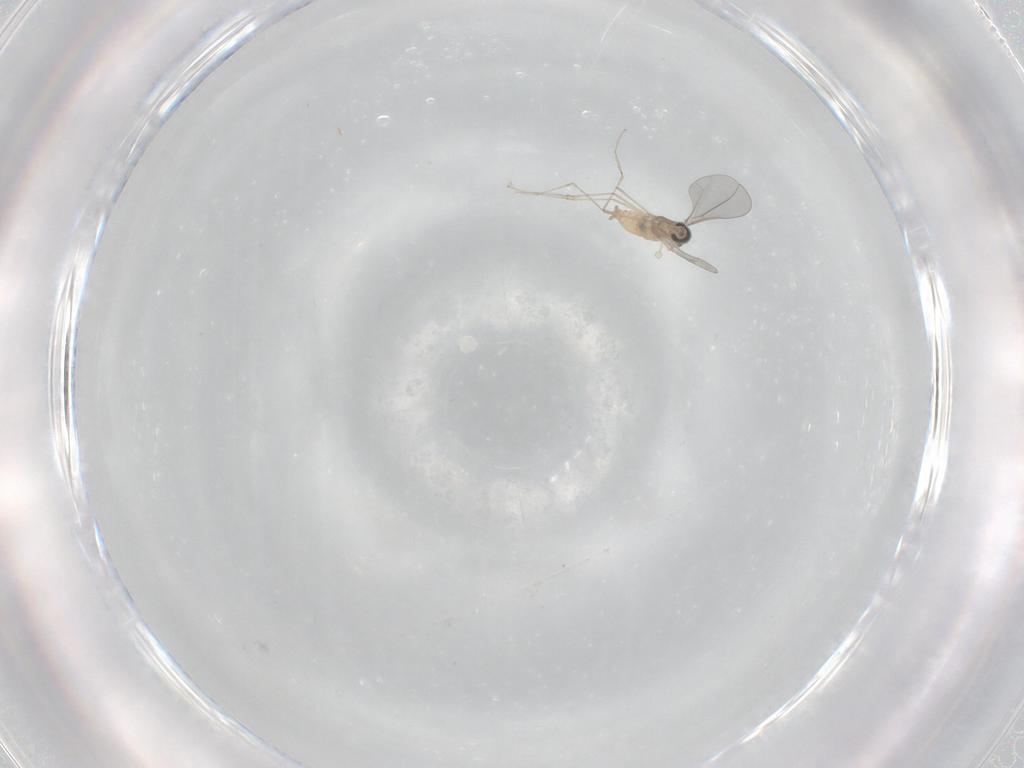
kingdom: Animalia
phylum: Arthropoda
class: Insecta
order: Diptera
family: Cecidomyiidae
